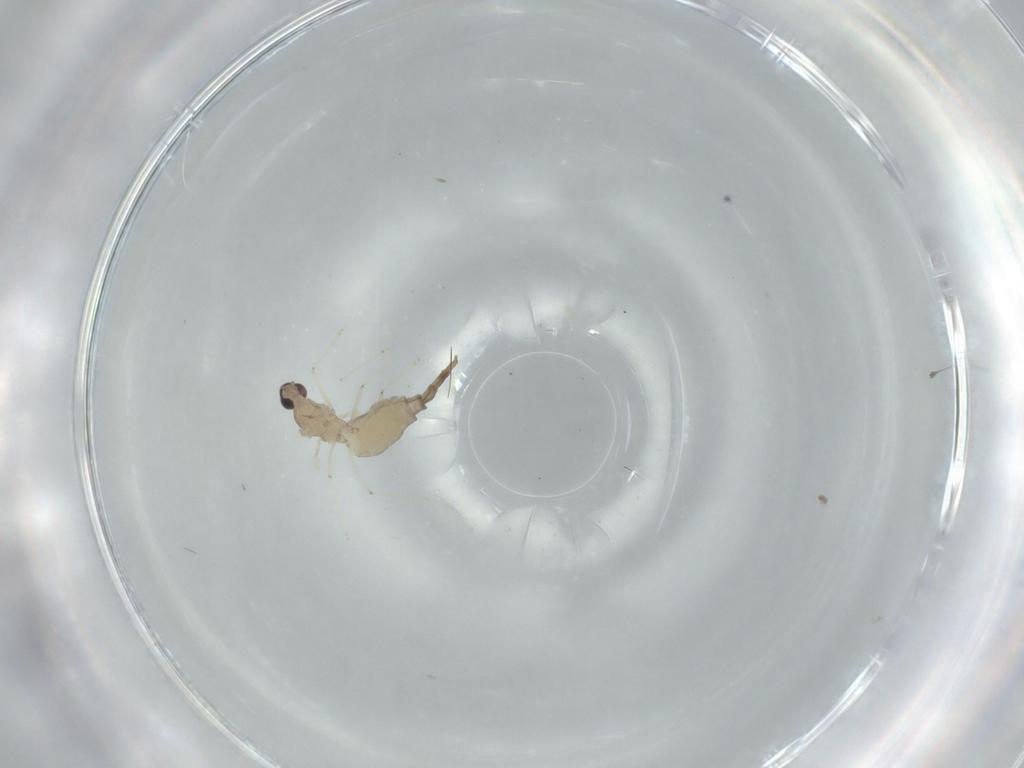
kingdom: Animalia
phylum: Arthropoda
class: Insecta
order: Diptera
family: Cecidomyiidae
